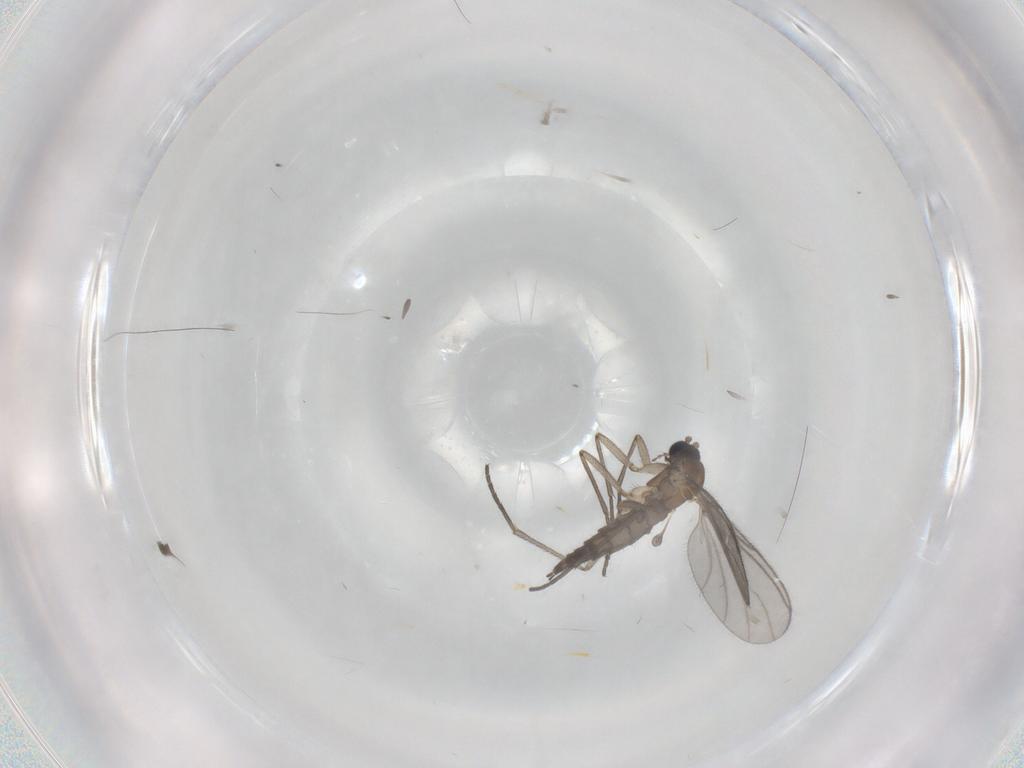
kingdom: Animalia
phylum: Arthropoda
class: Insecta
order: Diptera
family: Sciaridae
